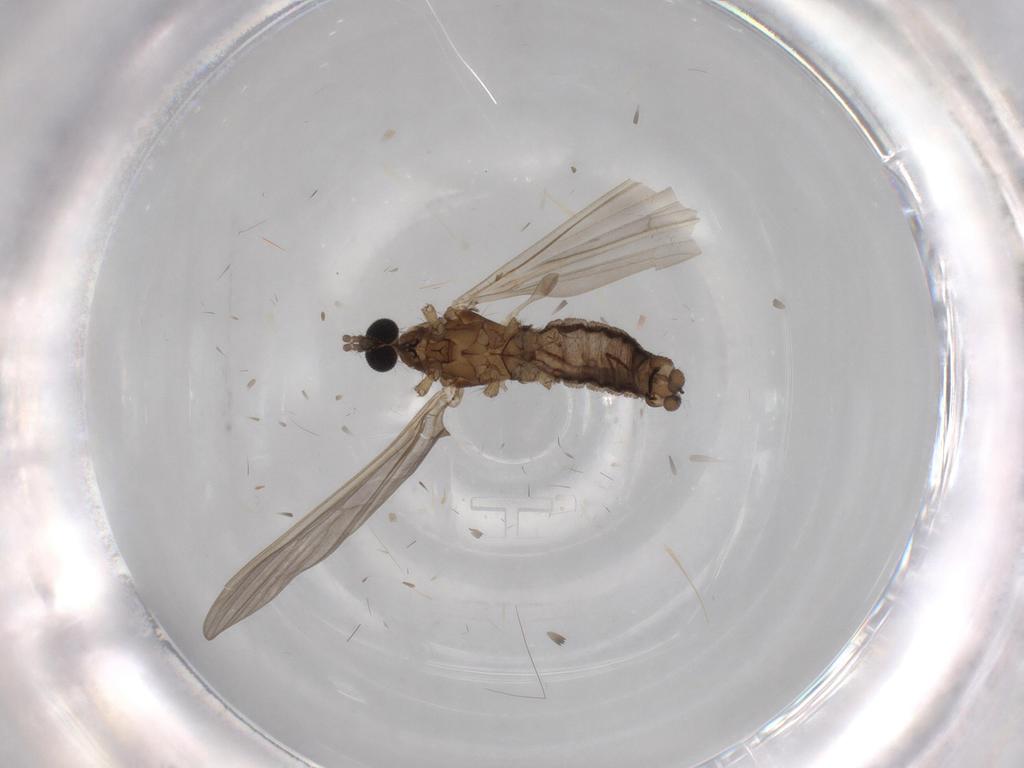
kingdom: Animalia
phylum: Arthropoda
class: Insecta
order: Diptera
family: Limoniidae
